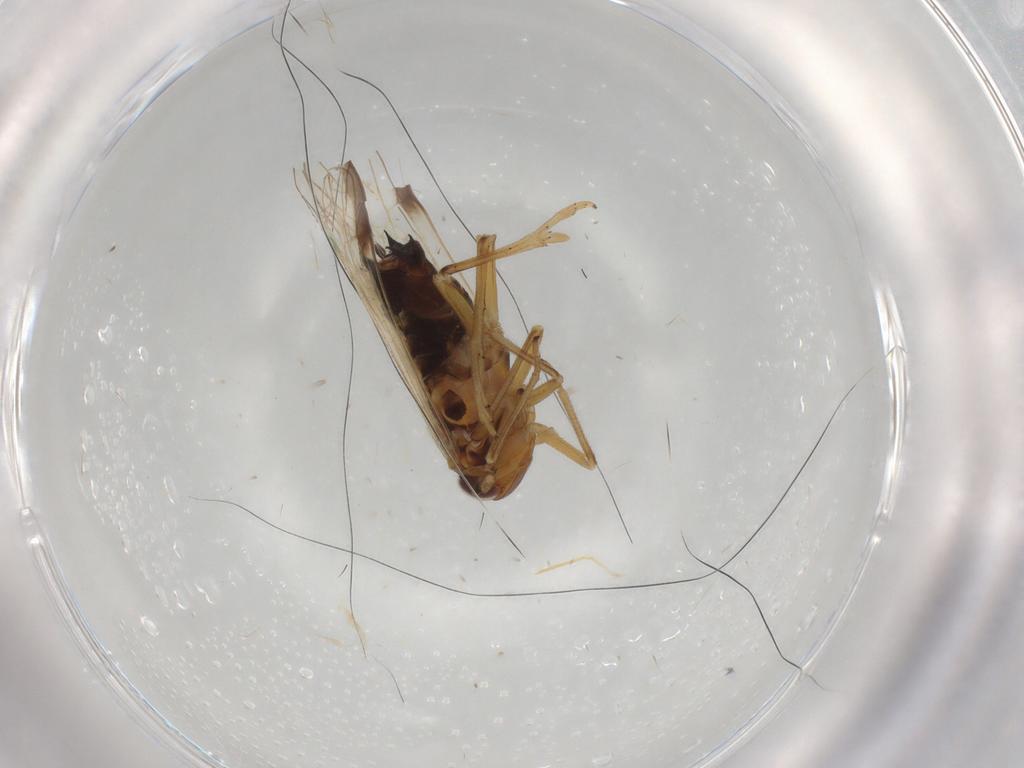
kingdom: Animalia
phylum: Arthropoda
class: Insecta
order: Hemiptera
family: Delphacidae
